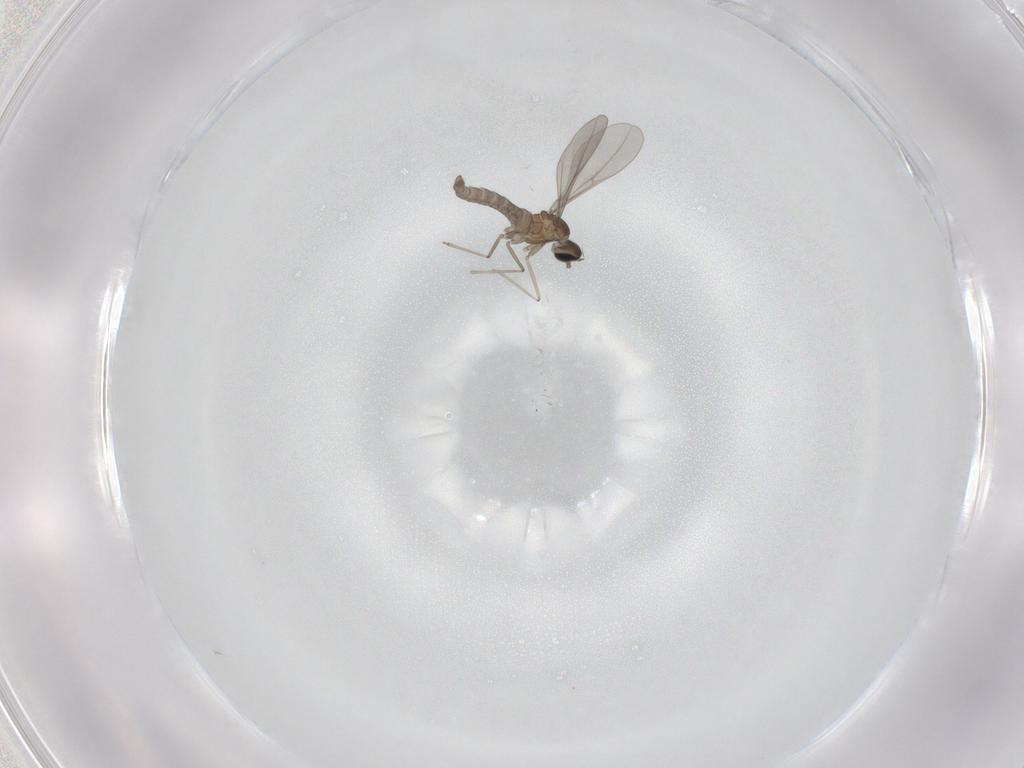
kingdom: Animalia
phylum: Arthropoda
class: Insecta
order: Diptera
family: Cecidomyiidae
